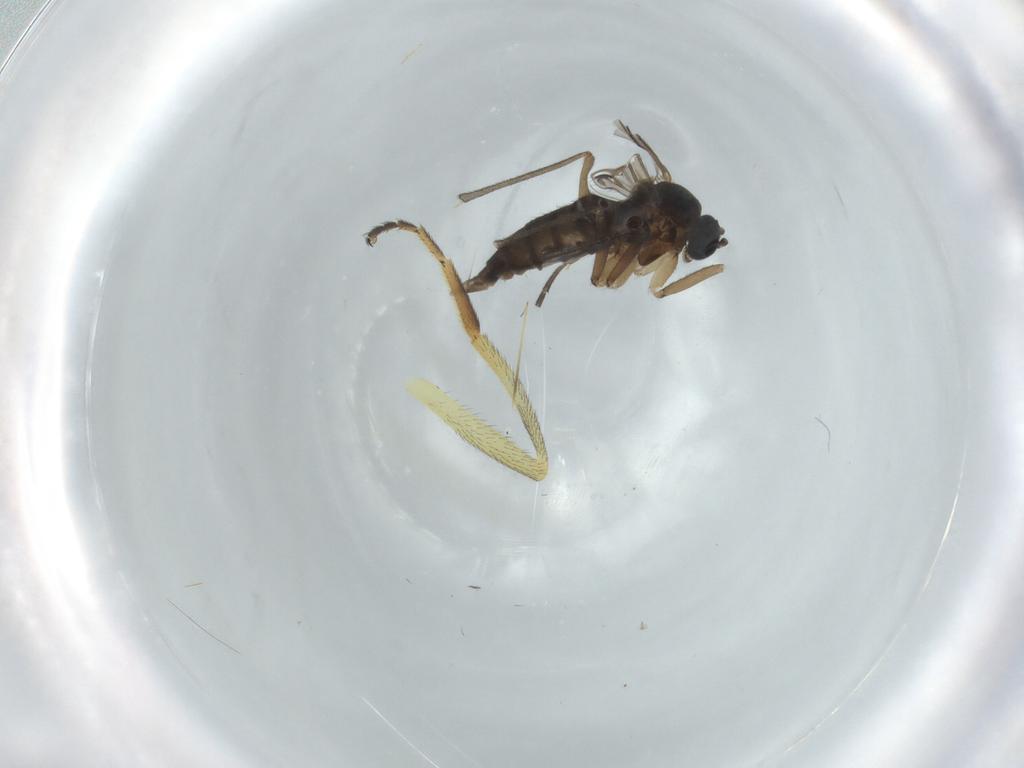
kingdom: Animalia
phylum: Arthropoda
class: Insecta
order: Diptera
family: Syrphidae
